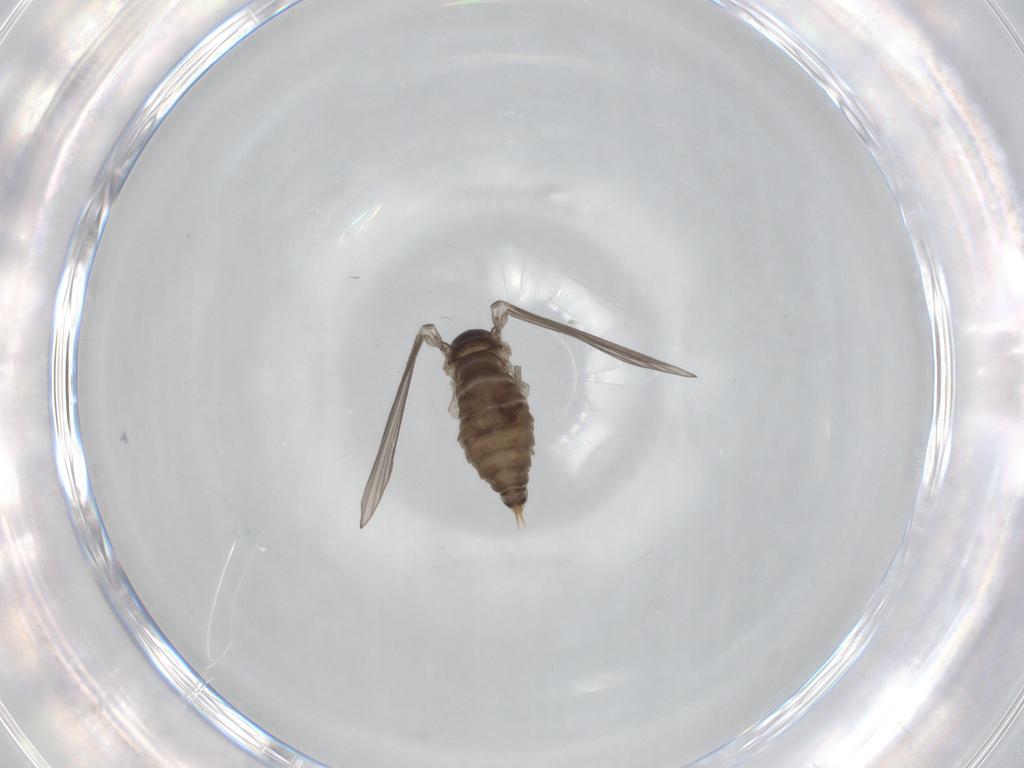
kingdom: Animalia
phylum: Arthropoda
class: Insecta
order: Diptera
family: Psychodidae
